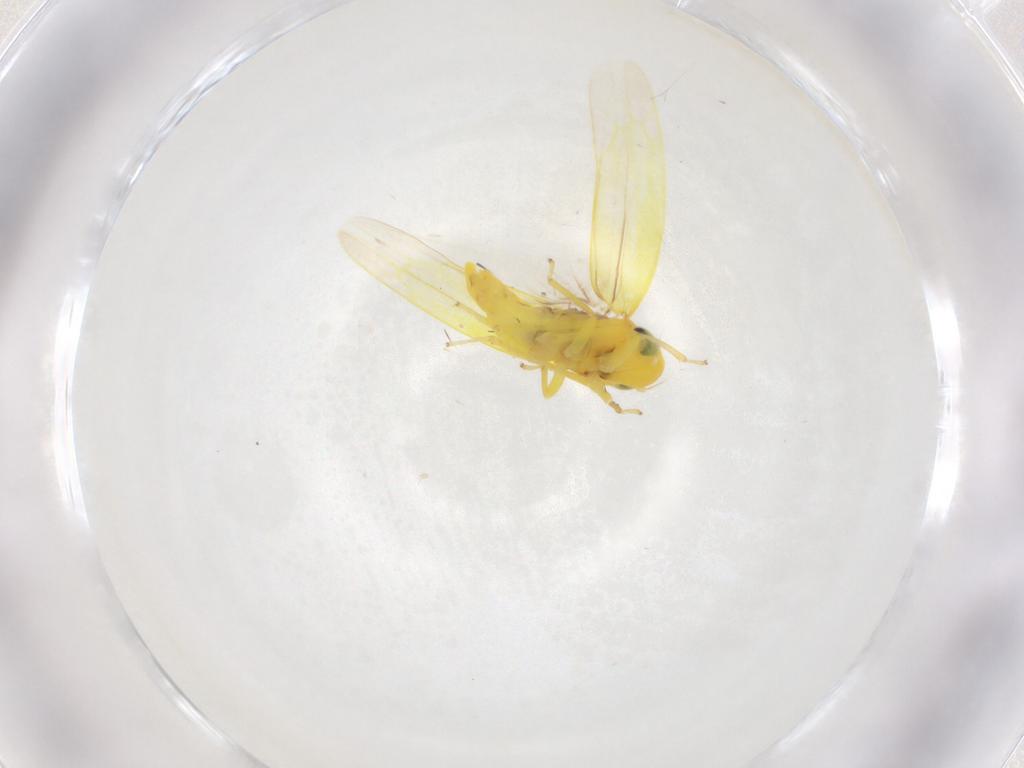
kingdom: Animalia
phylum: Arthropoda
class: Insecta
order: Hemiptera
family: Cicadellidae
